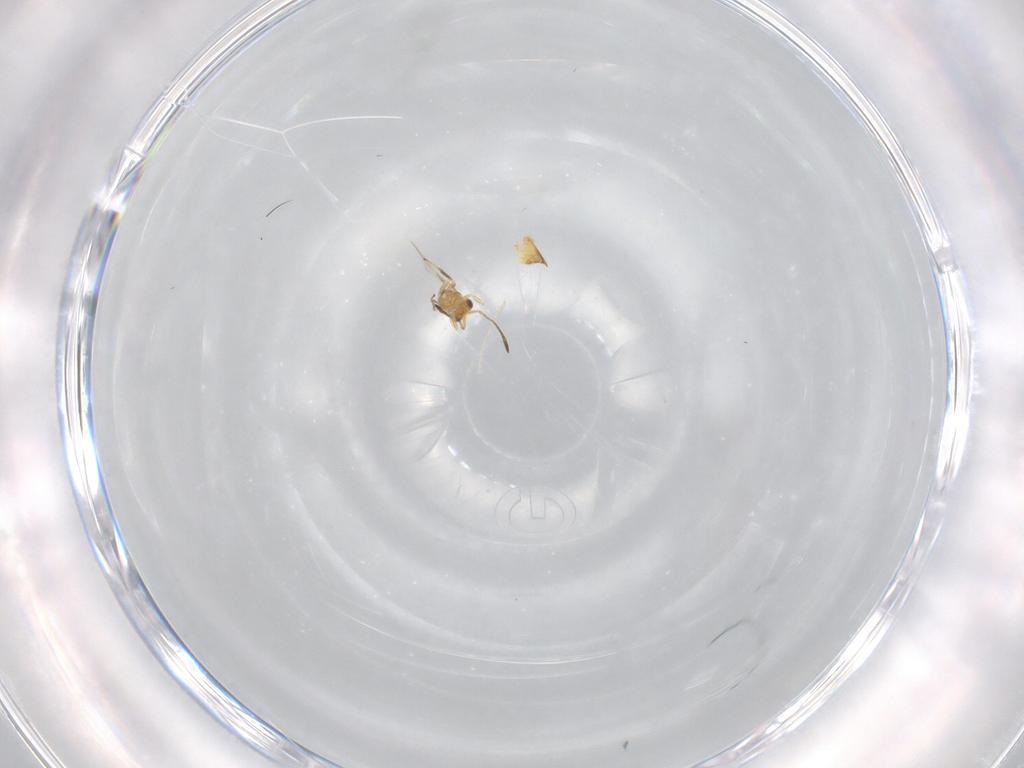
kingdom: Animalia
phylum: Arthropoda
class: Insecta
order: Hymenoptera
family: Mymaridae
